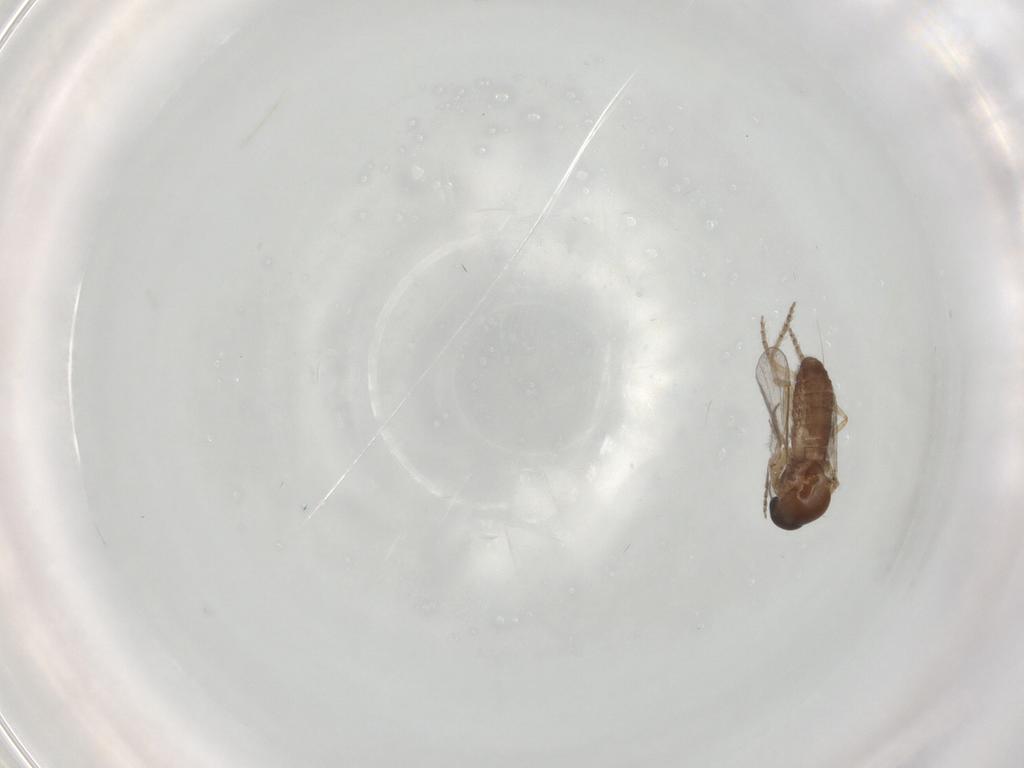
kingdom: Animalia
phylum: Arthropoda
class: Insecta
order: Diptera
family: Ceratopogonidae
